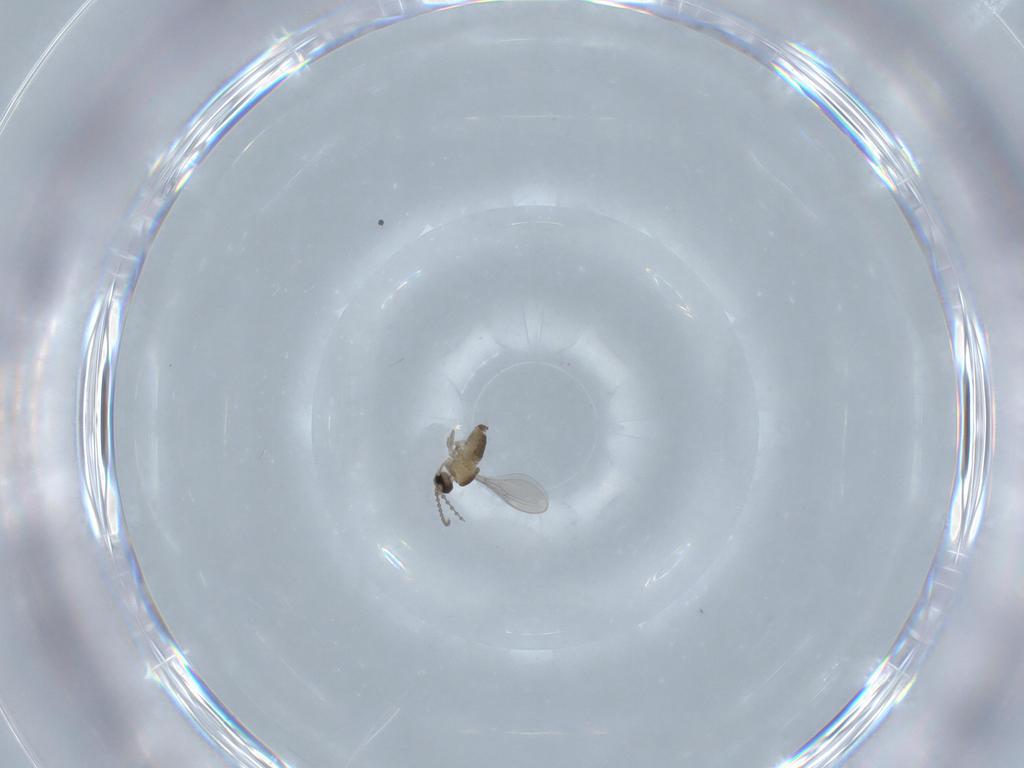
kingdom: Animalia
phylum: Arthropoda
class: Insecta
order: Diptera
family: Cecidomyiidae
